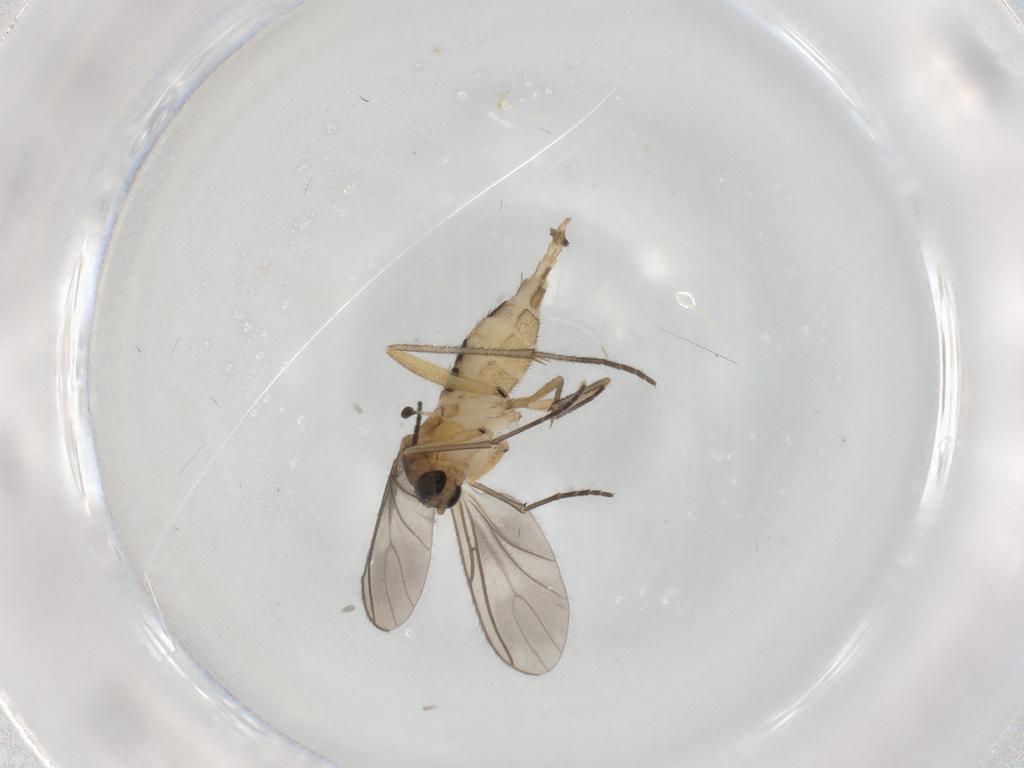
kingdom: Animalia
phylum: Arthropoda
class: Insecta
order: Diptera
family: Sciaridae
